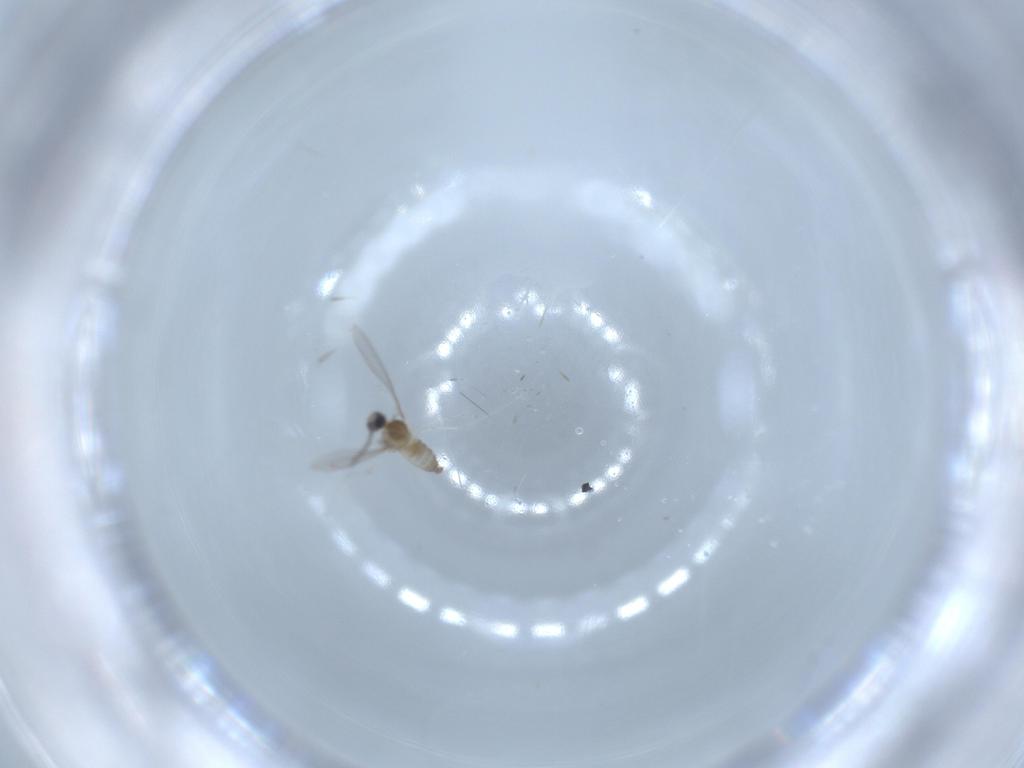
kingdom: Animalia
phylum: Arthropoda
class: Insecta
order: Diptera
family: Cecidomyiidae
